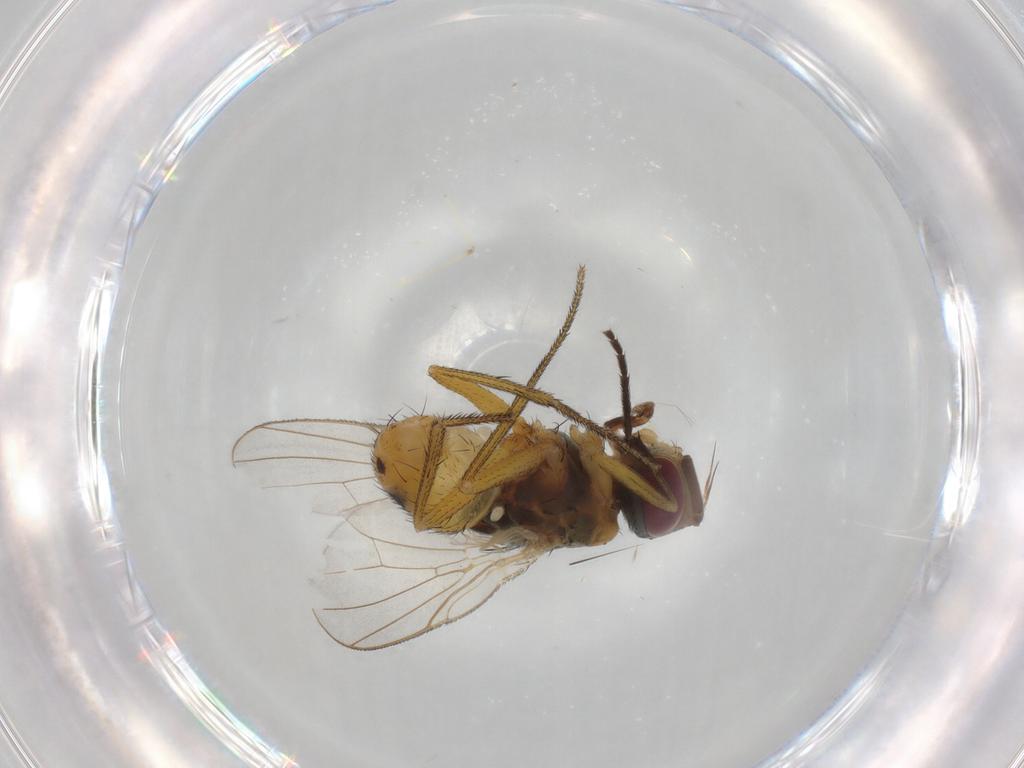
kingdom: Animalia
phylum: Arthropoda
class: Insecta
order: Diptera
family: Muscidae
